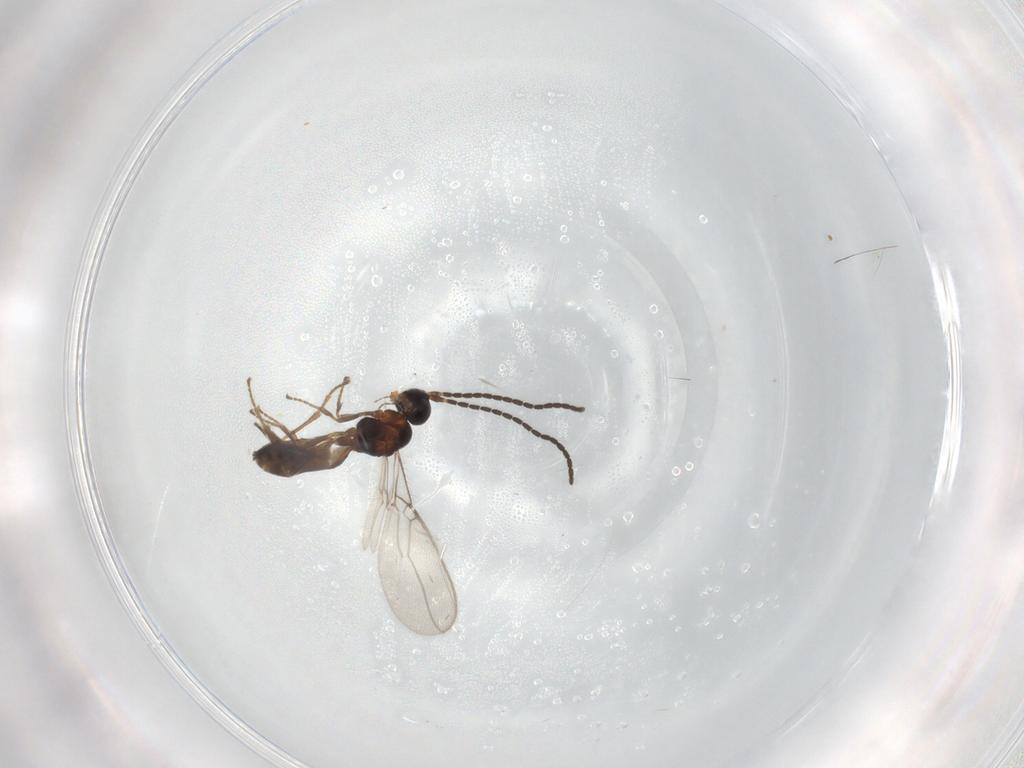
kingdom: Animalia
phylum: Arthropoda
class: Insecta
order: Hymenoptera
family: Braconidae
